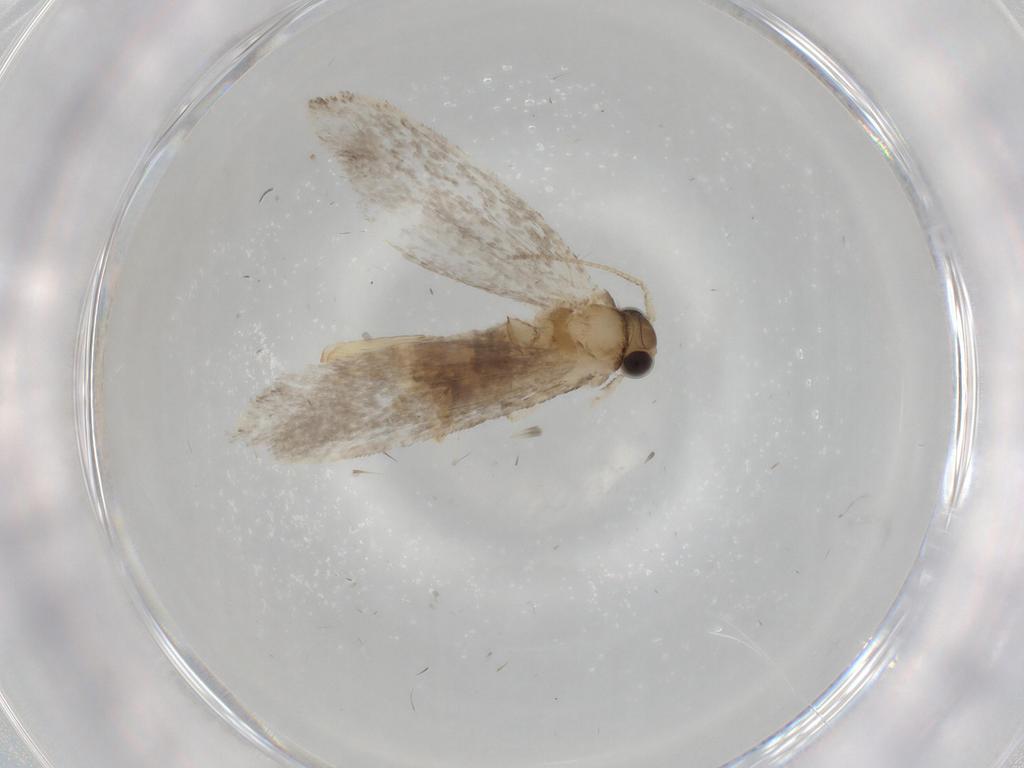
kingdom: Animalia
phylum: Arthropoda
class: Insecta
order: Lepidoptera
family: Tineidae
